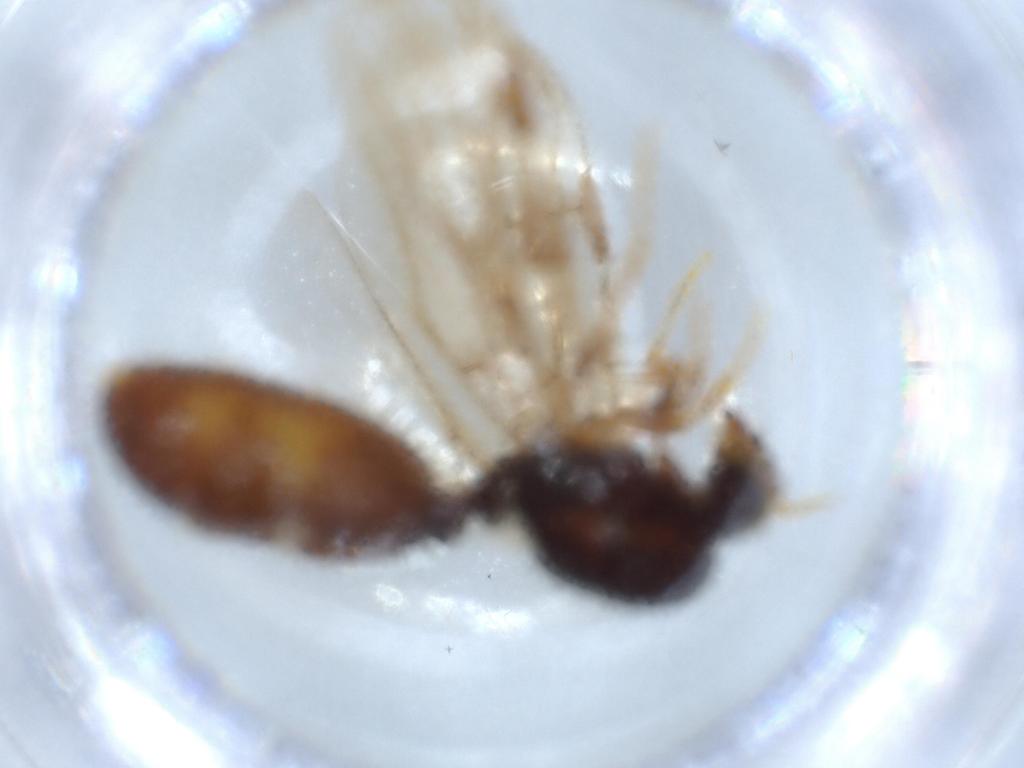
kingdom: Animalia
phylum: Arthropoda
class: Insecta
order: Hymenoptera
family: Formicidae
